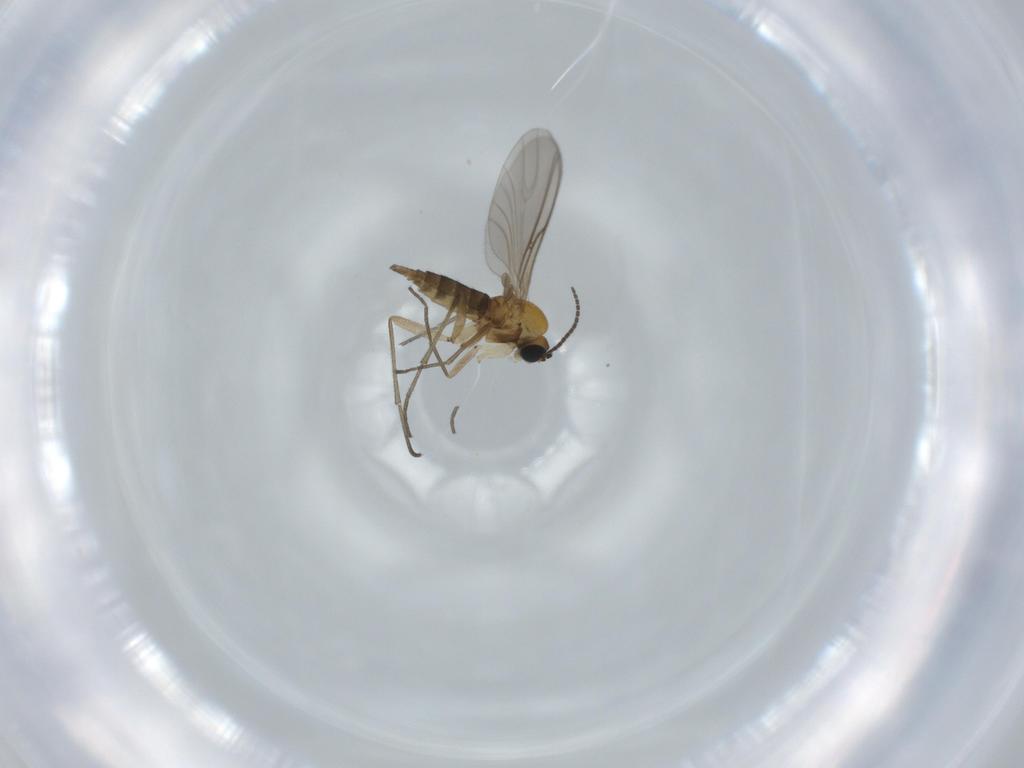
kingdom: Animalia
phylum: Arthropoda
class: Insecta
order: Diptera
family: Sciaridae
